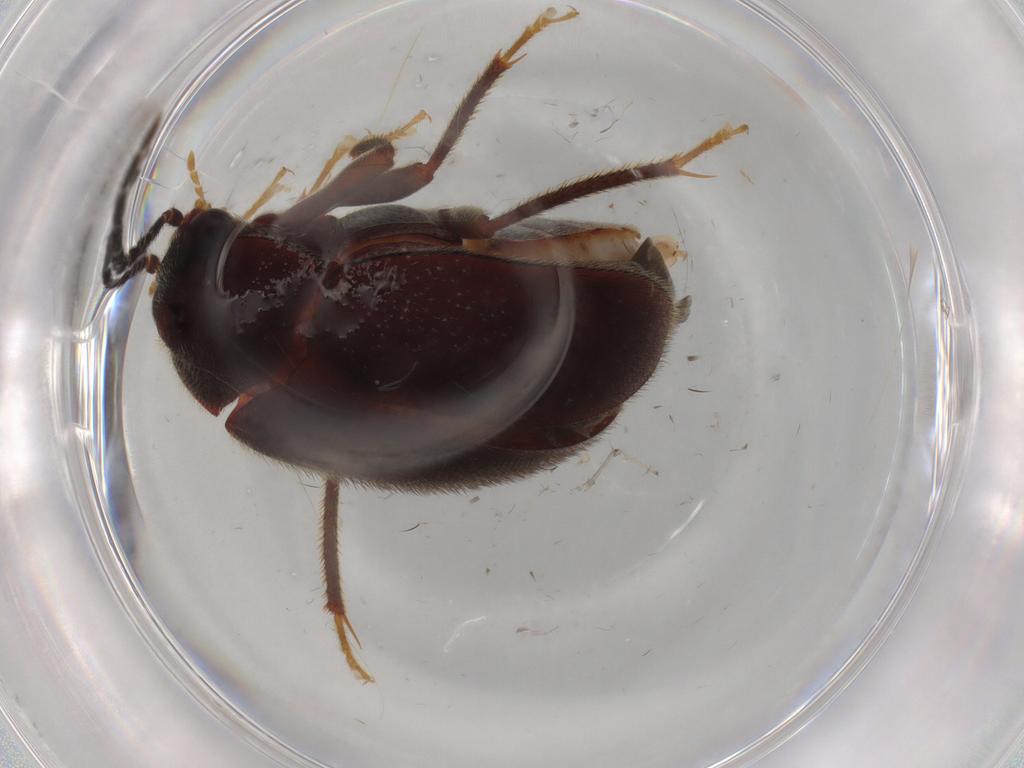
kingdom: Animalia
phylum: Arthropoda
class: Insecta
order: Coleoptera
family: Ptilodactylidae
